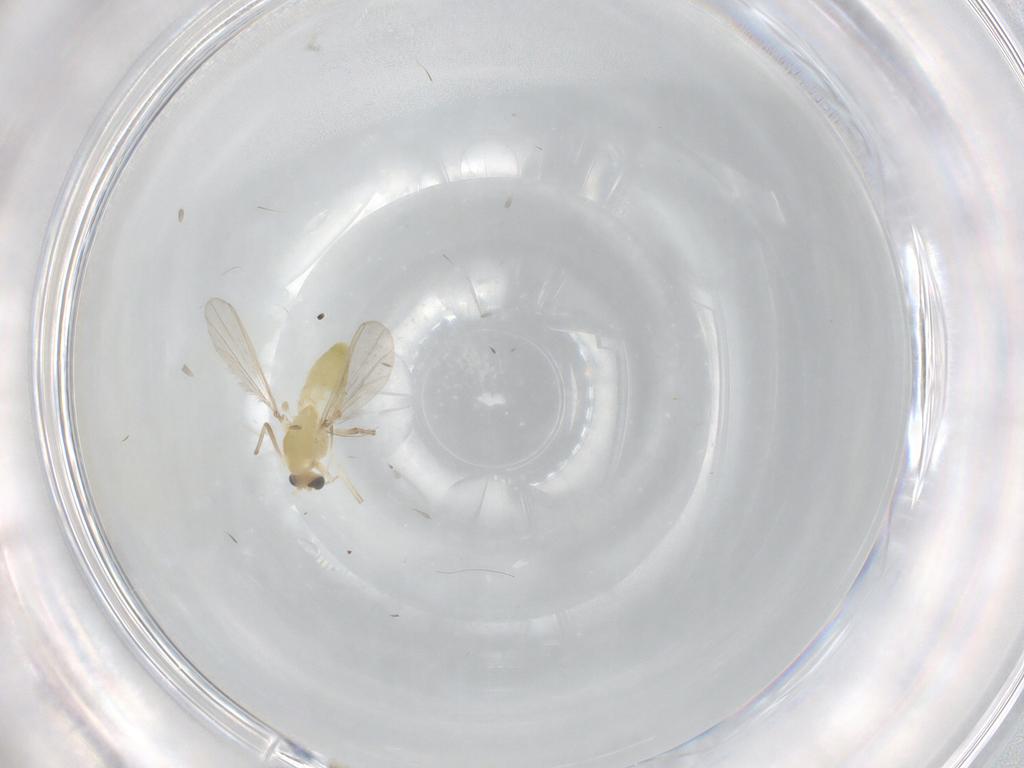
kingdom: Animalia
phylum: Arthropoda
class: Insecta
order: Diptera
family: Chironomidae
